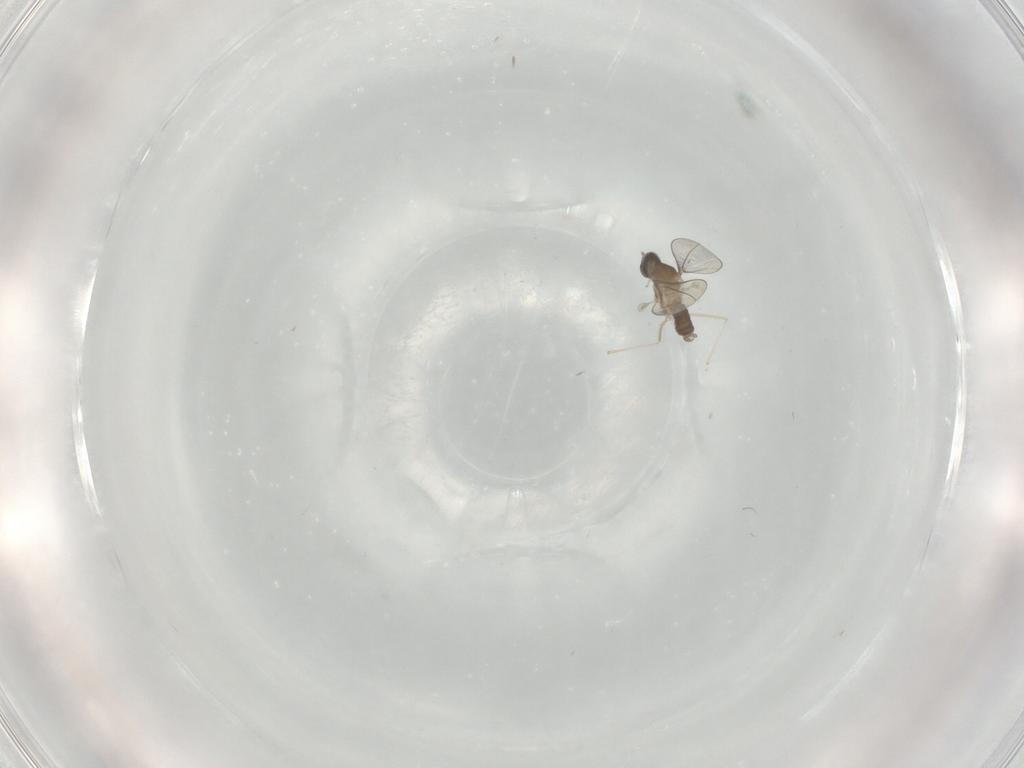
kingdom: Animalia
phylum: Arthropoda
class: Insecta
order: Diptera
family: Cecidomyiidae
